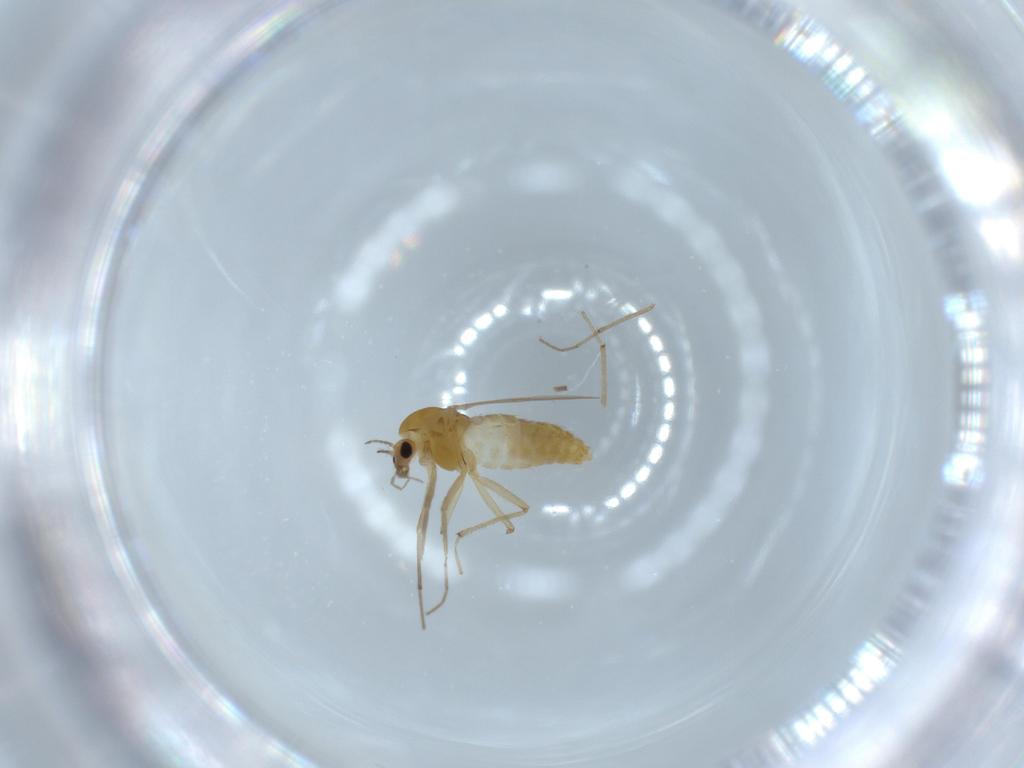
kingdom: Animalia
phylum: Arthropoda
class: Insecta
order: Diptera
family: Chironomidae
